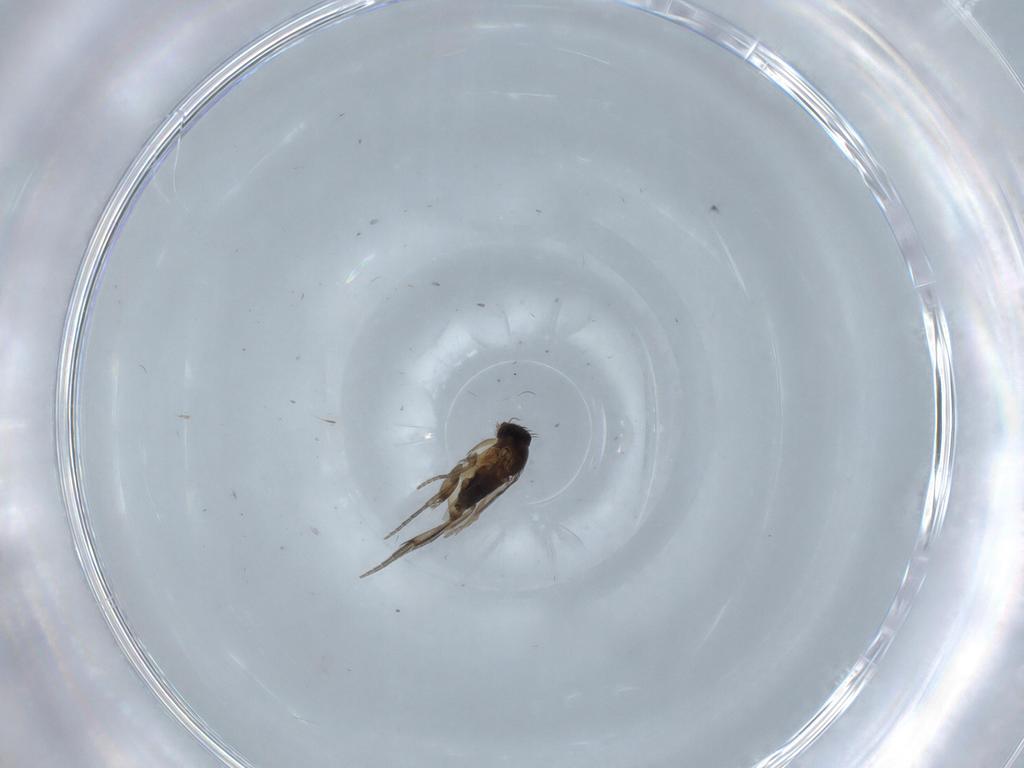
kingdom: Animalia
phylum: Arthropoda
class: Insecta
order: Diptera
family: Phoridae
